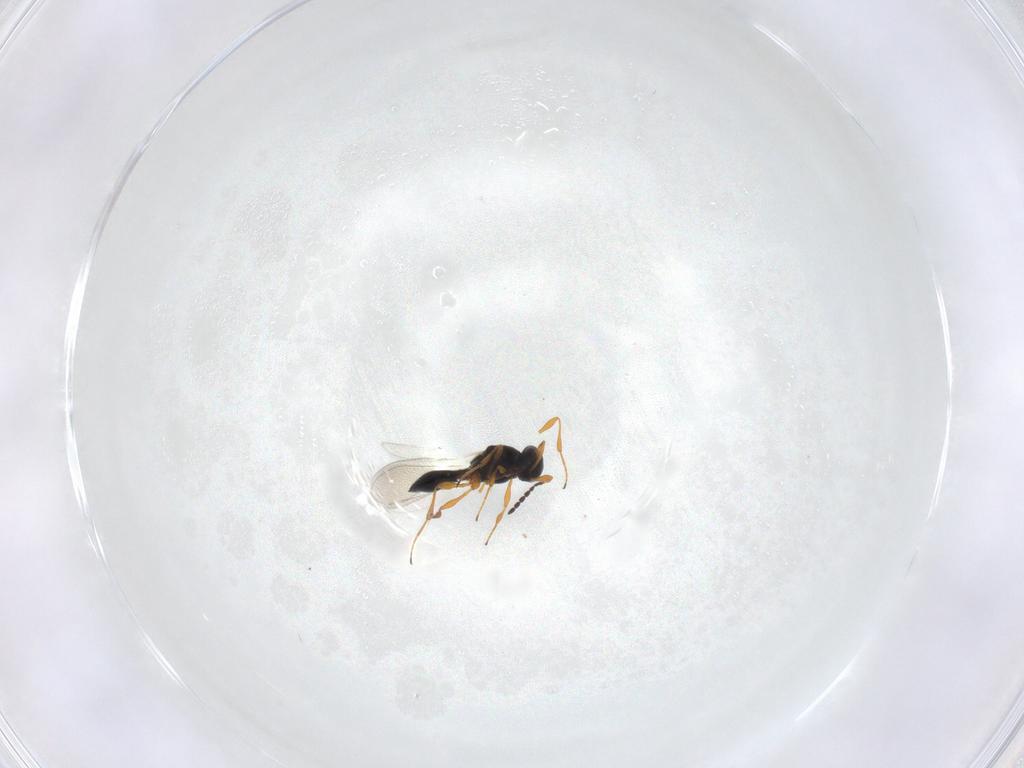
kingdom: Animalia
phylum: Arthropoda
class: Insecta
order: Hymenoptera
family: Platygastridae
